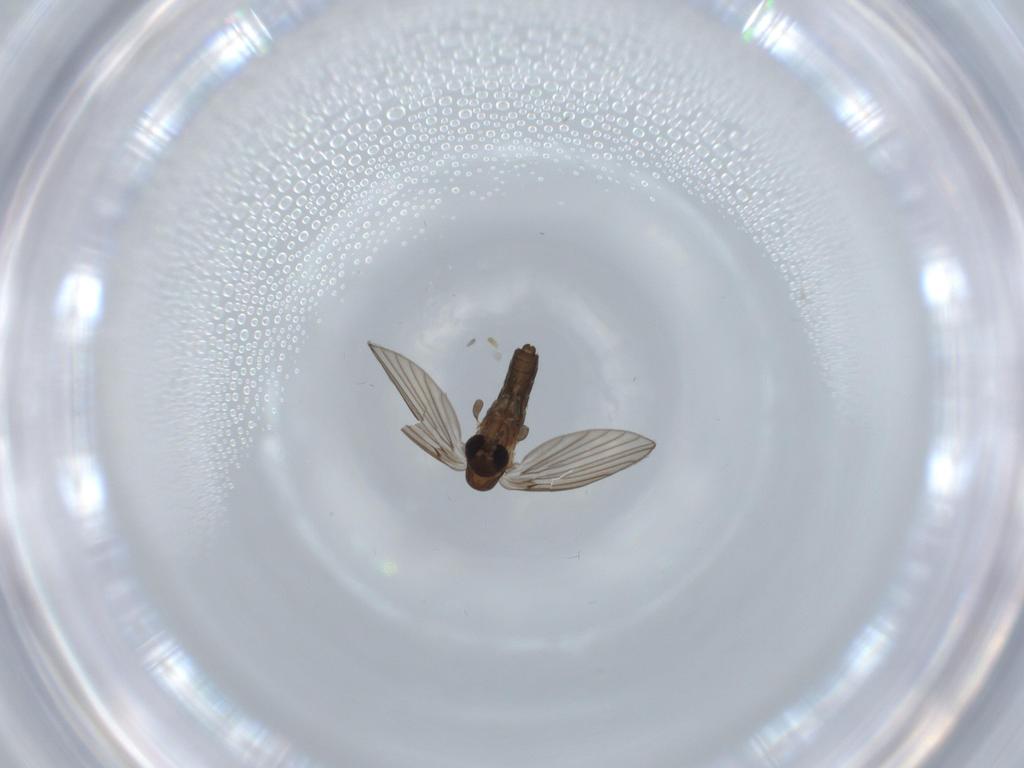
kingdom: Animalia
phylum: Arthropoda
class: Insecta
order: Diptera
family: Psychodidae
